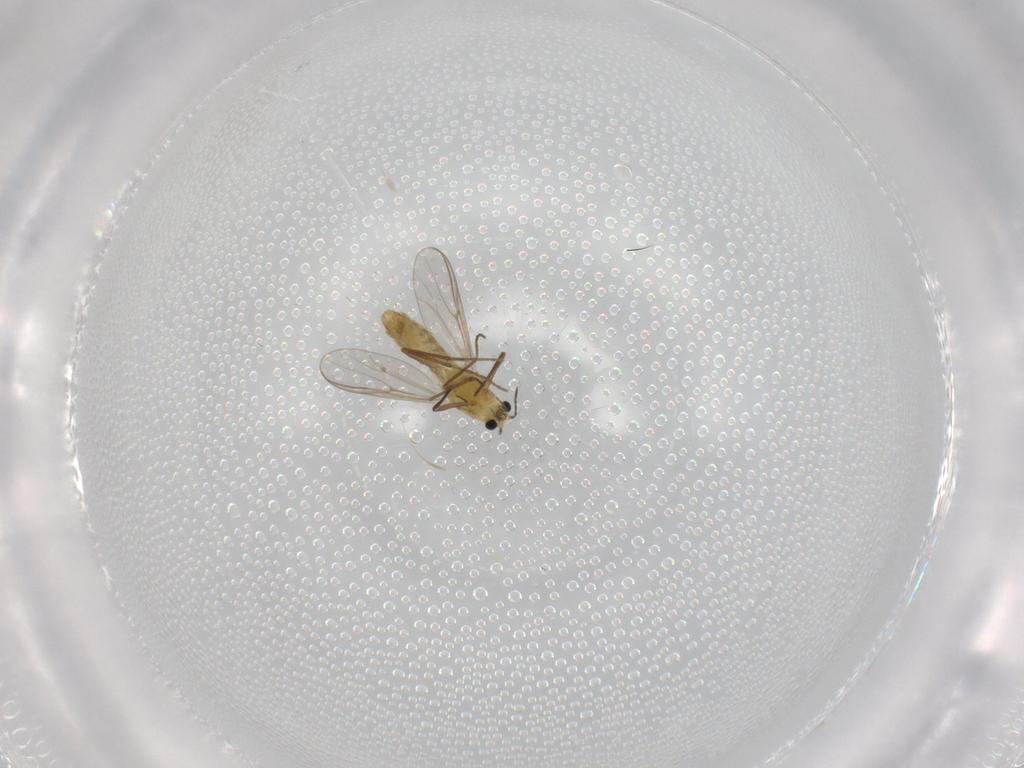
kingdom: Animalia
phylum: Arthropoda
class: Insecta
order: Diptera
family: Chironomidae
